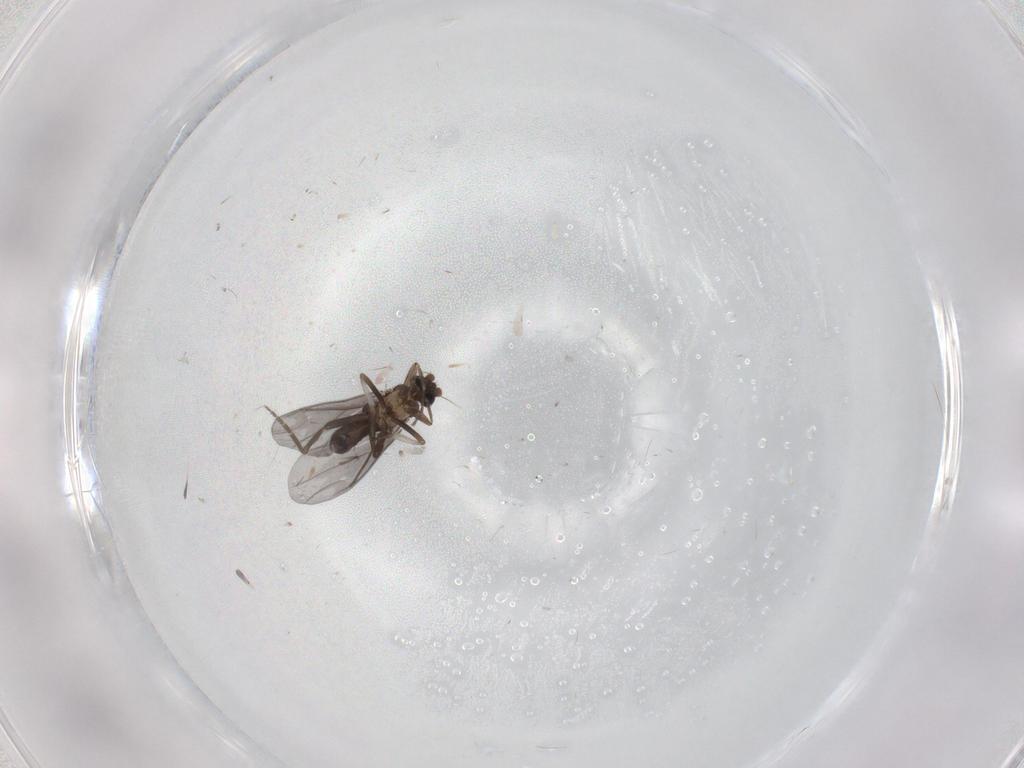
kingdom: Animalia
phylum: Arthropoda
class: Insecta
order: Diptera
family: Phoridae
